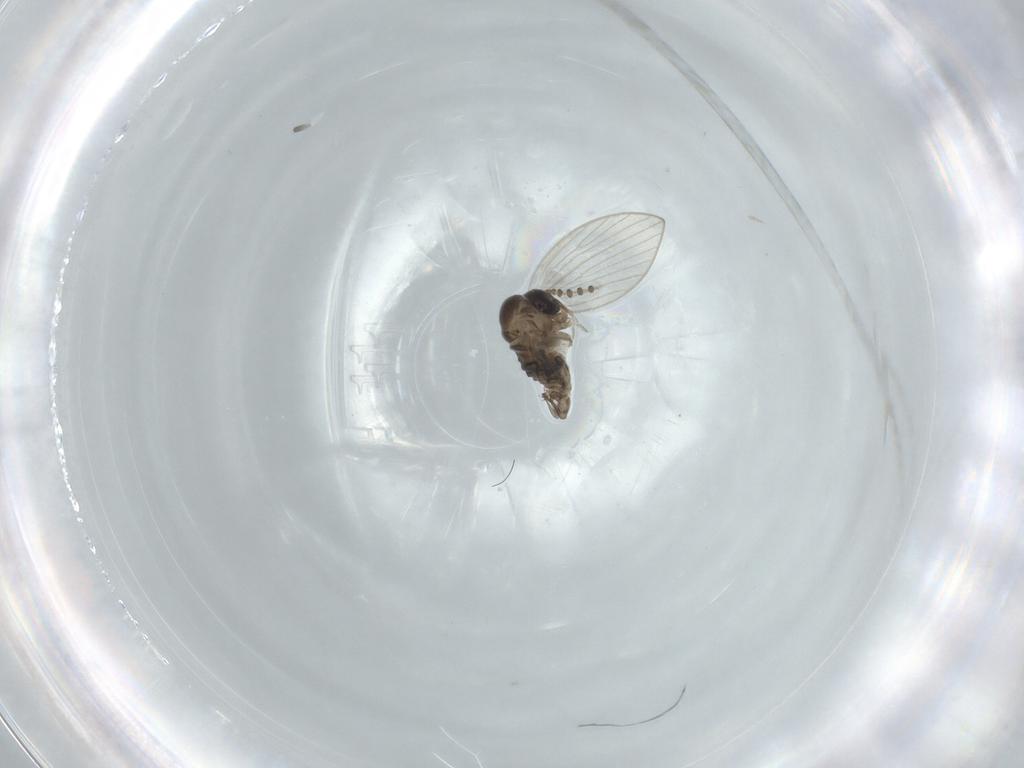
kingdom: Animalia
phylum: Arthropoda
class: Insecta
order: Diptera
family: Psychodidae
